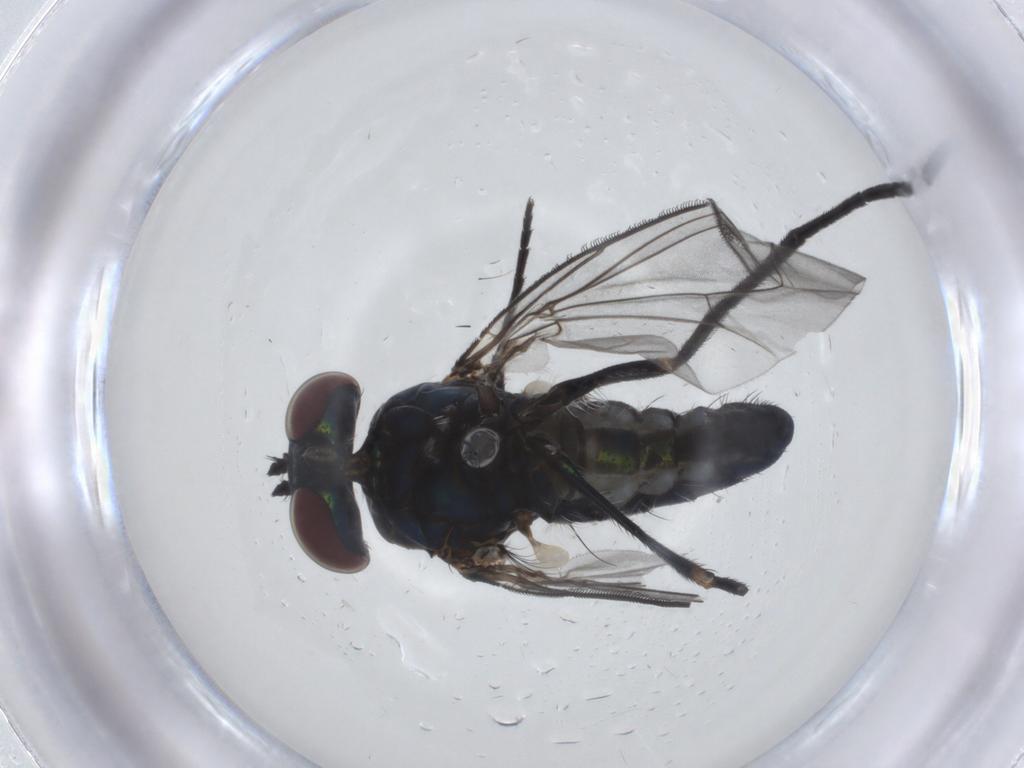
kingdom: Animalia
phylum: Arthropoda
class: Insecta
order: Diptera
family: Dolichopodidae
